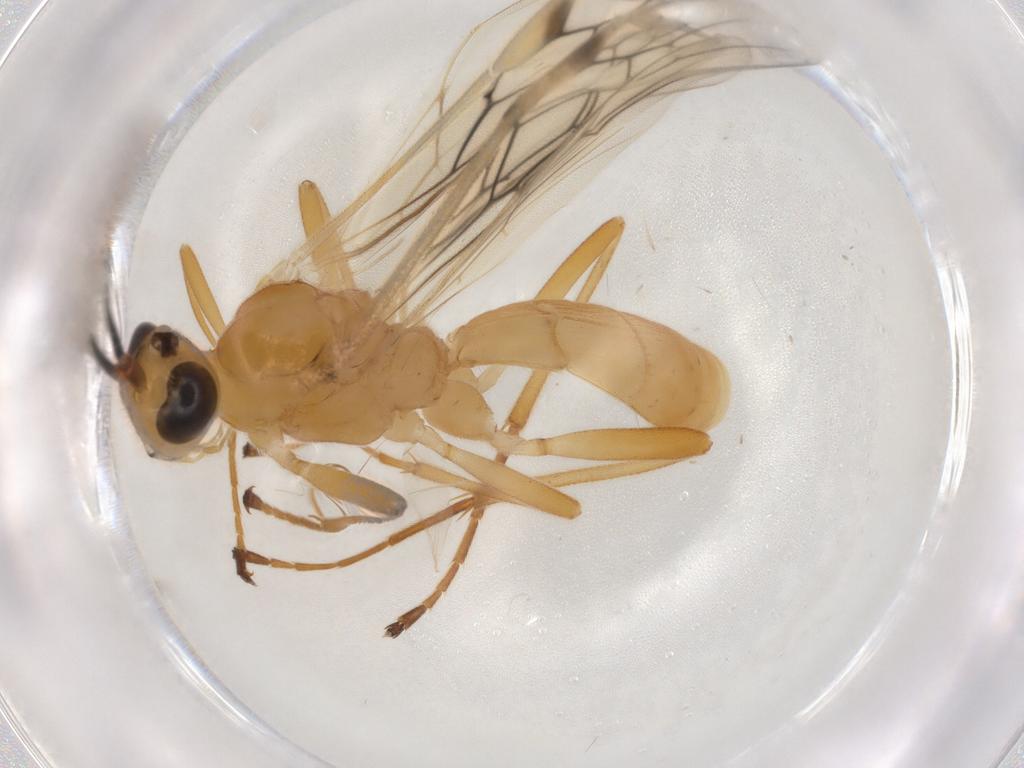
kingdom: Animalia
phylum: Arthropoda
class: Insecta
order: Hymenoptera
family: Braconidae
